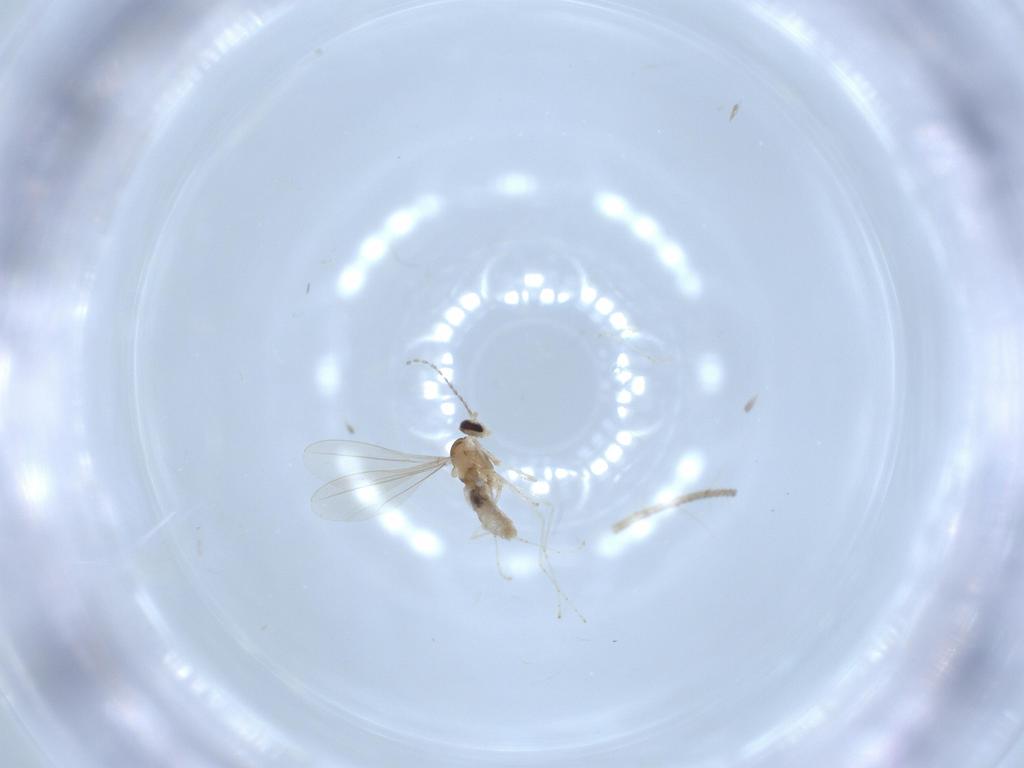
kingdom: Animalia
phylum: Arthropoda
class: Insecta
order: Diptera
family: Cecidomyiidae
